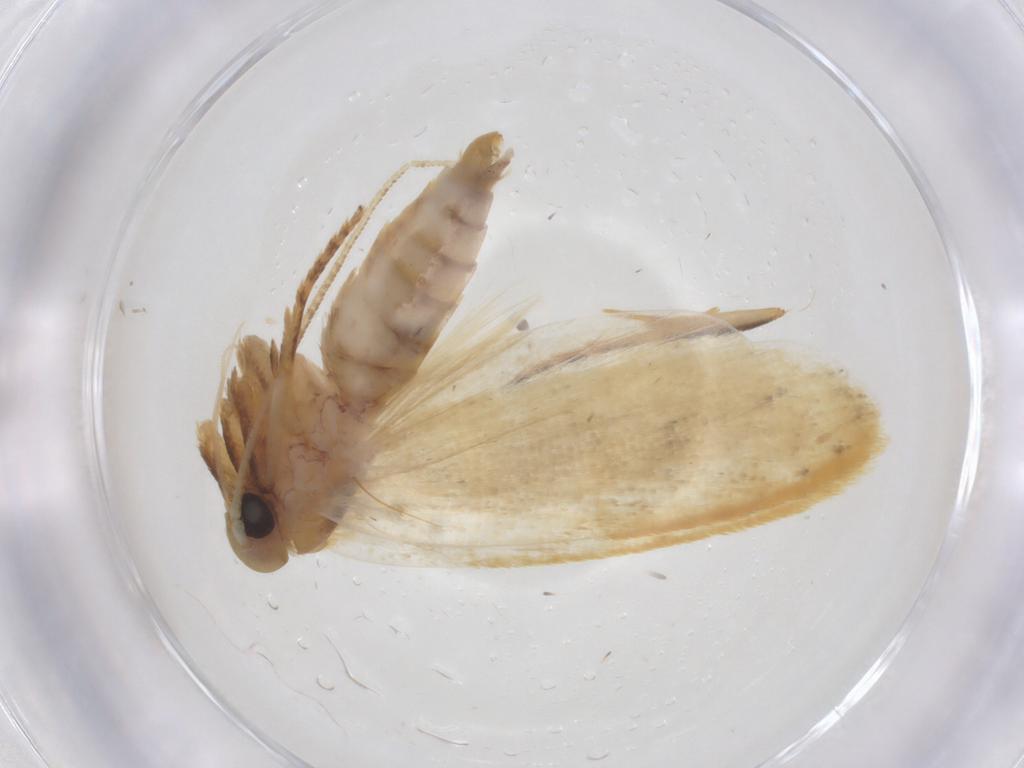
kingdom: Animalia
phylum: Arthropoda
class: Insecta
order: Lepidoptera
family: Depressariidae
